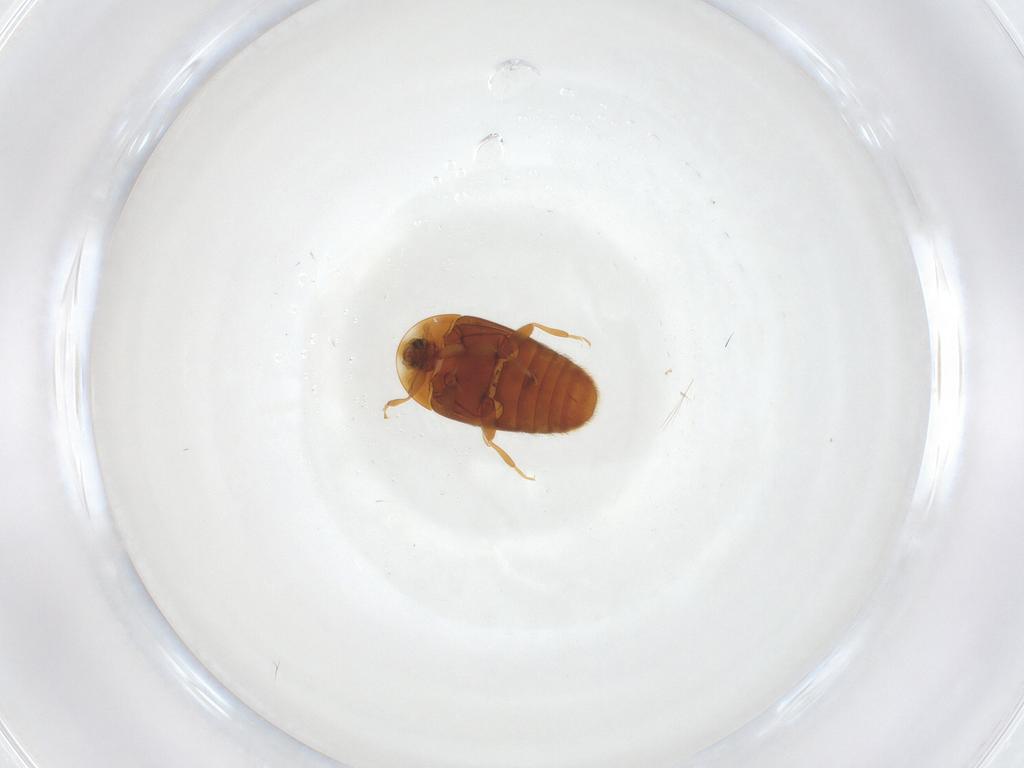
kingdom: Animalia
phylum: Arthropoda
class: Insecta
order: Coleoptera
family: Corylophidae
